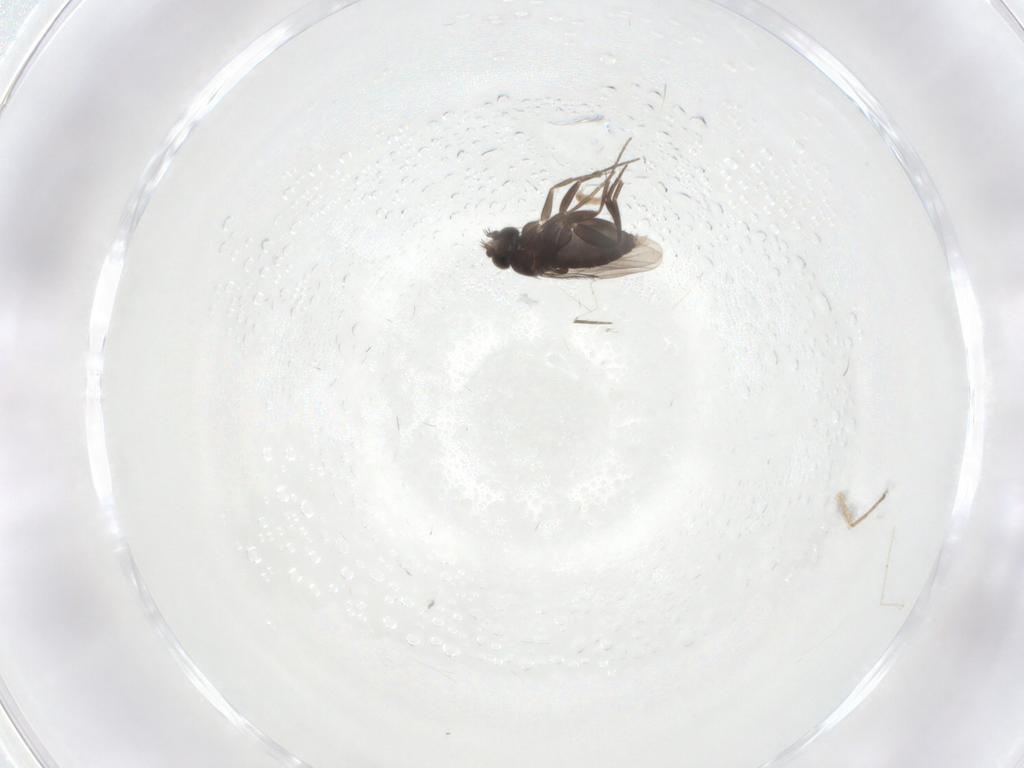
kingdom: Animalia
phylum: Arthropoda
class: Insecta
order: Diptera
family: Ceratopogonidae
